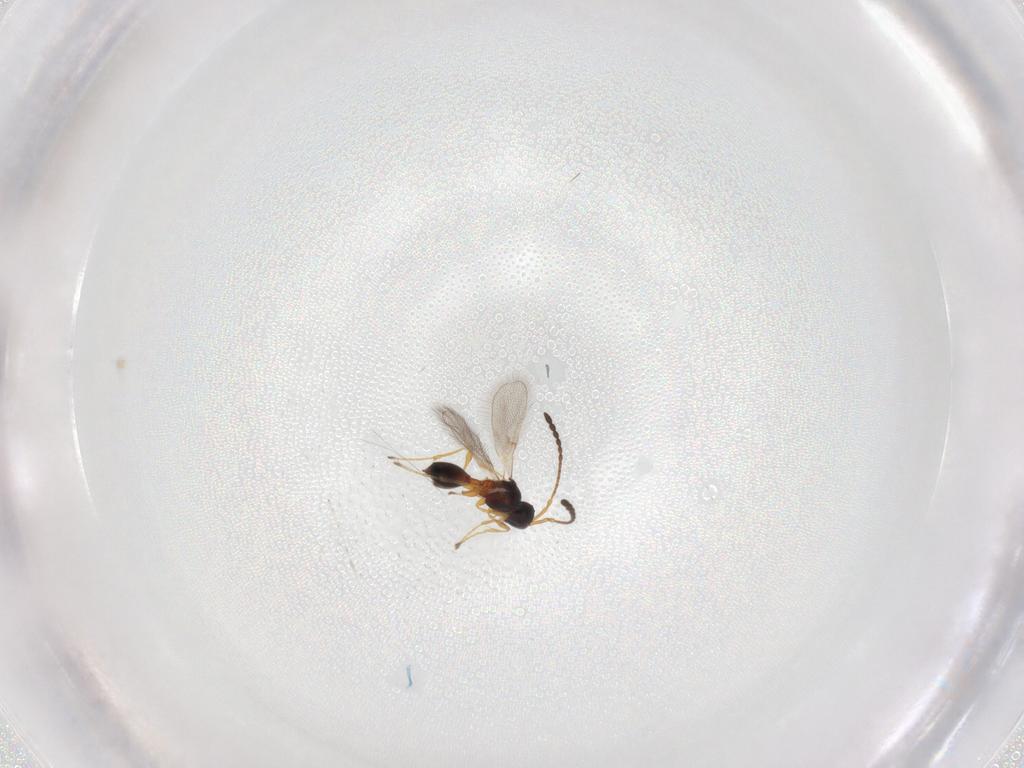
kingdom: Animalia
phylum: Arthropoda
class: Insecta
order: Hymenoptera
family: Diapriidae
